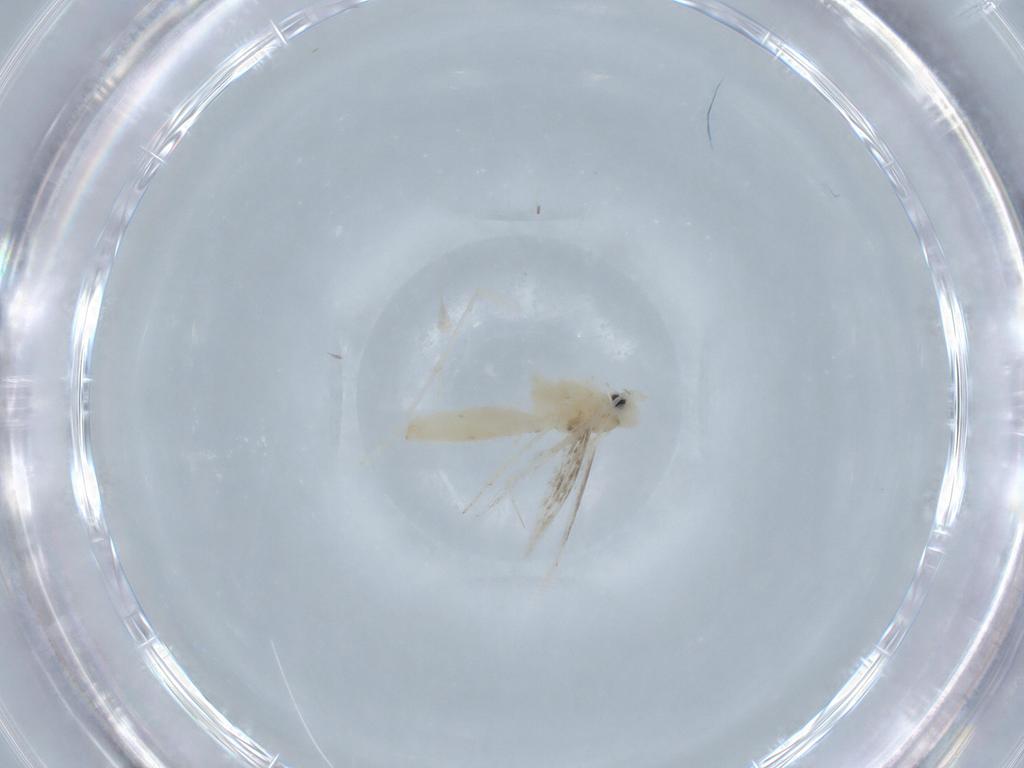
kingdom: Animalia
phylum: Arthropoda
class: Insecta
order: Lepidoptera
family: Gracillariidae
